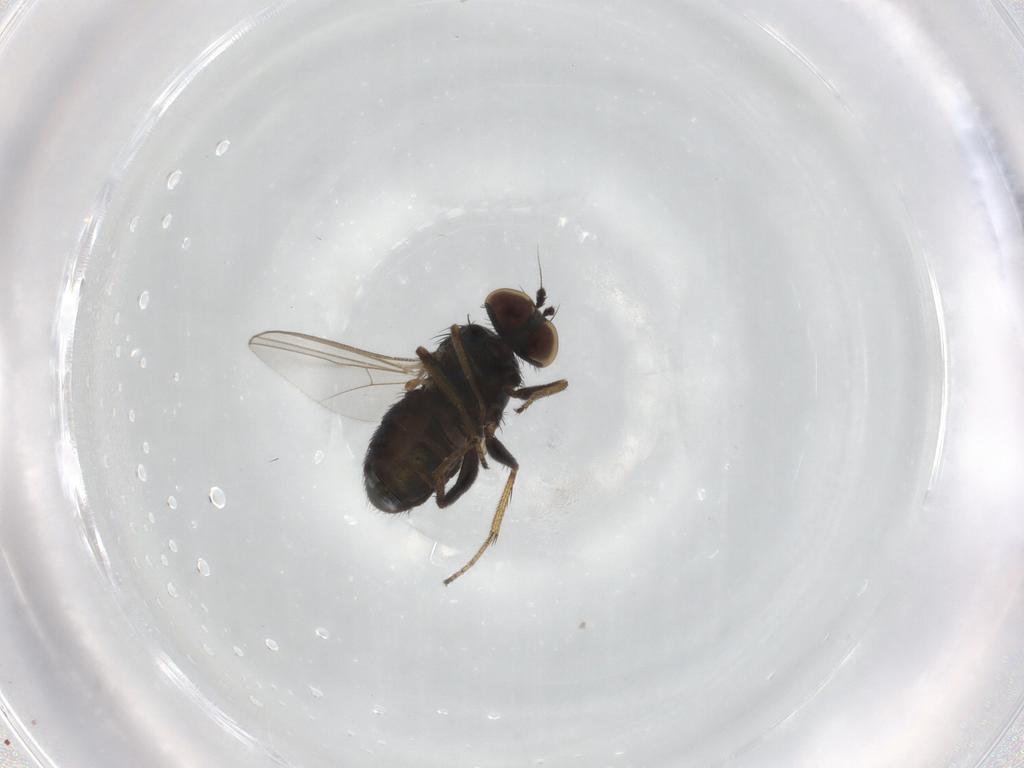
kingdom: Animalia
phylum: Arthropoda
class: Insecta
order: Diptera
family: Dolichopodidae
